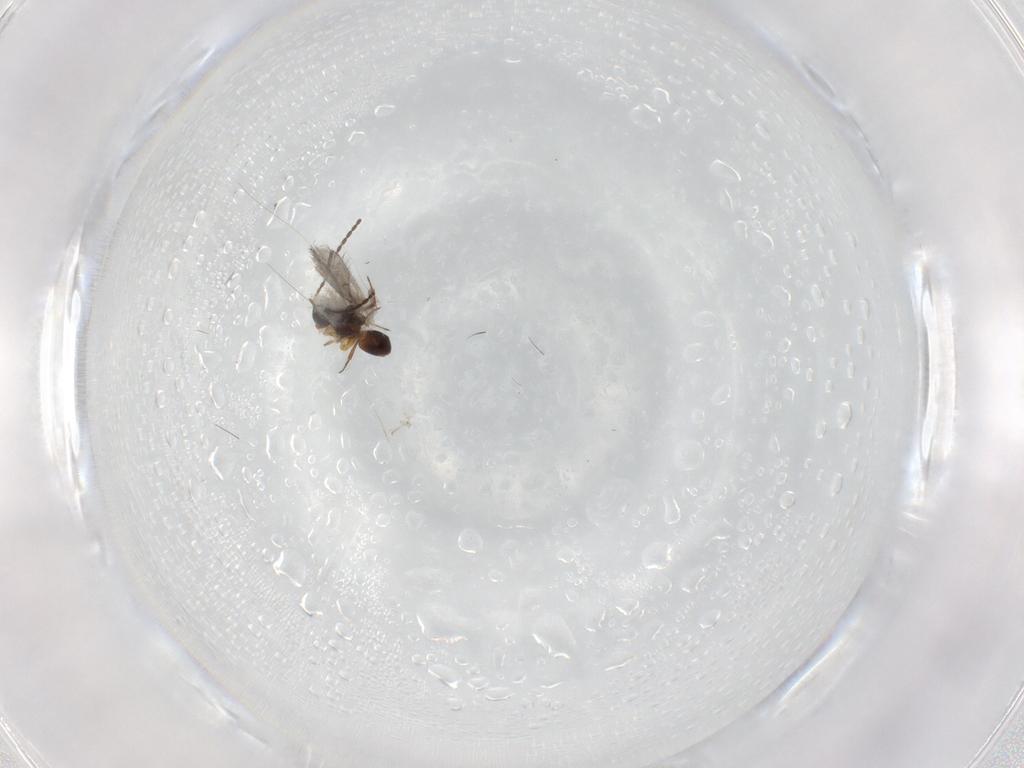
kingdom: Animalia
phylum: Arthropoda
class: Insecta
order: Hymenoptera
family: Figitidae
